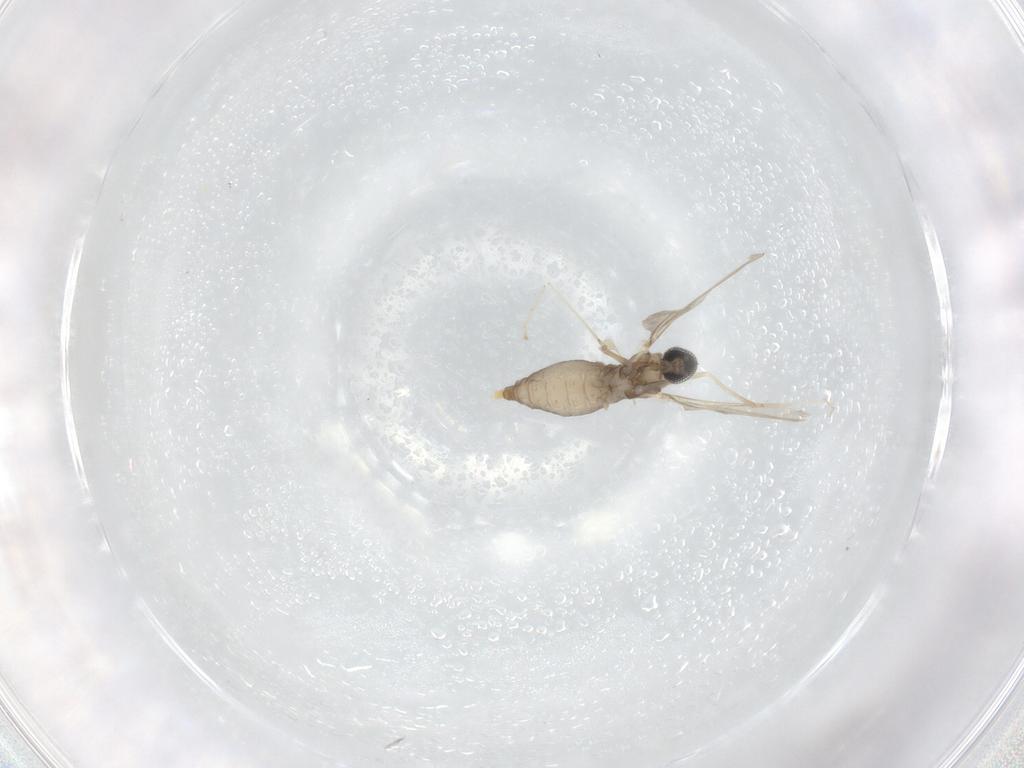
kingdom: Animalia
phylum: Arthropoda
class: Insecta
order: Diptera
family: Cecidomyiidae
